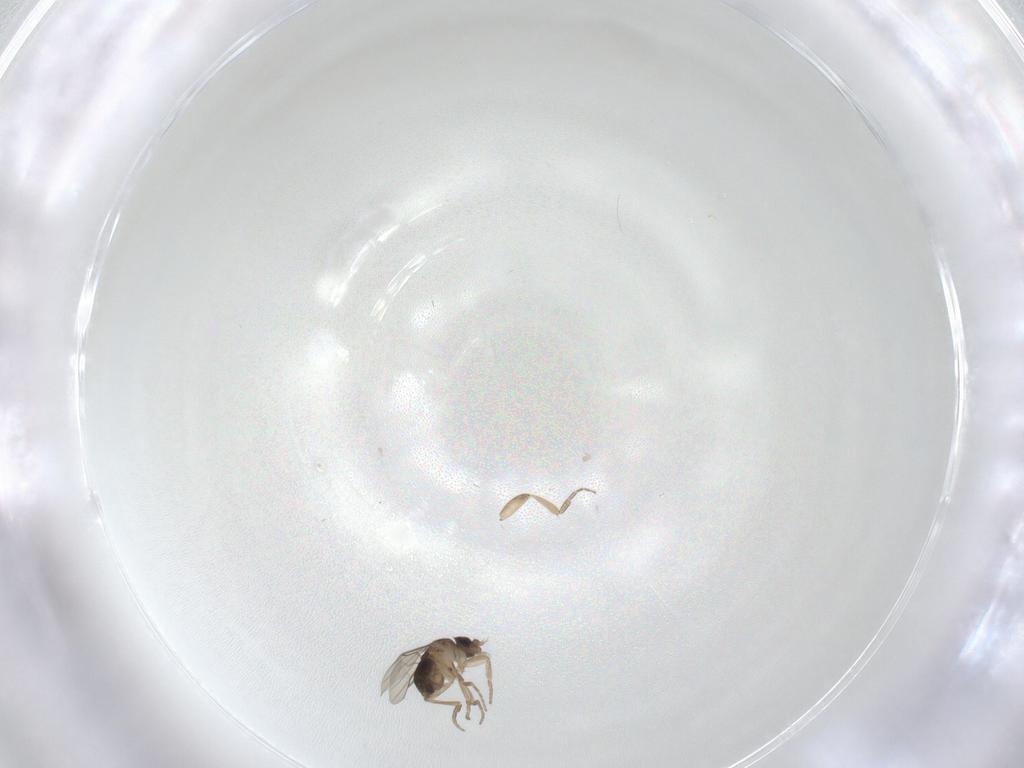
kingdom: Animalia
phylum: Arthropoda
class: Insecta
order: Diptera
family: Phoridae
